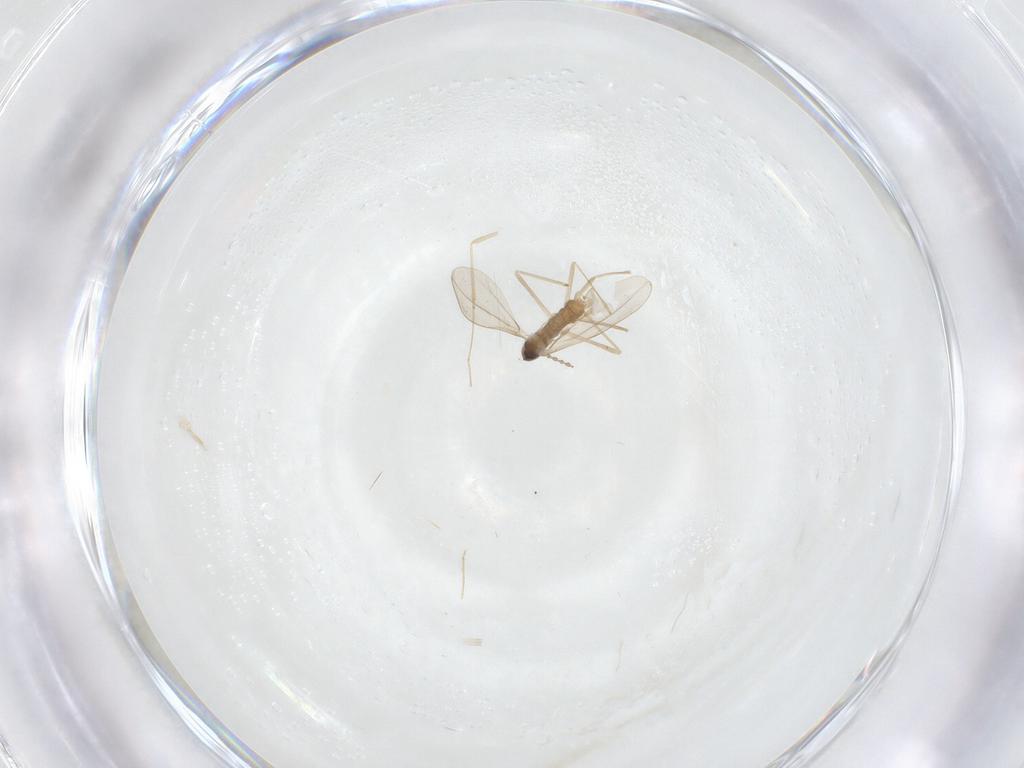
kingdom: Animalia
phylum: Arthropoda
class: Insecta
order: Diptera
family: Cecidomyiidae
